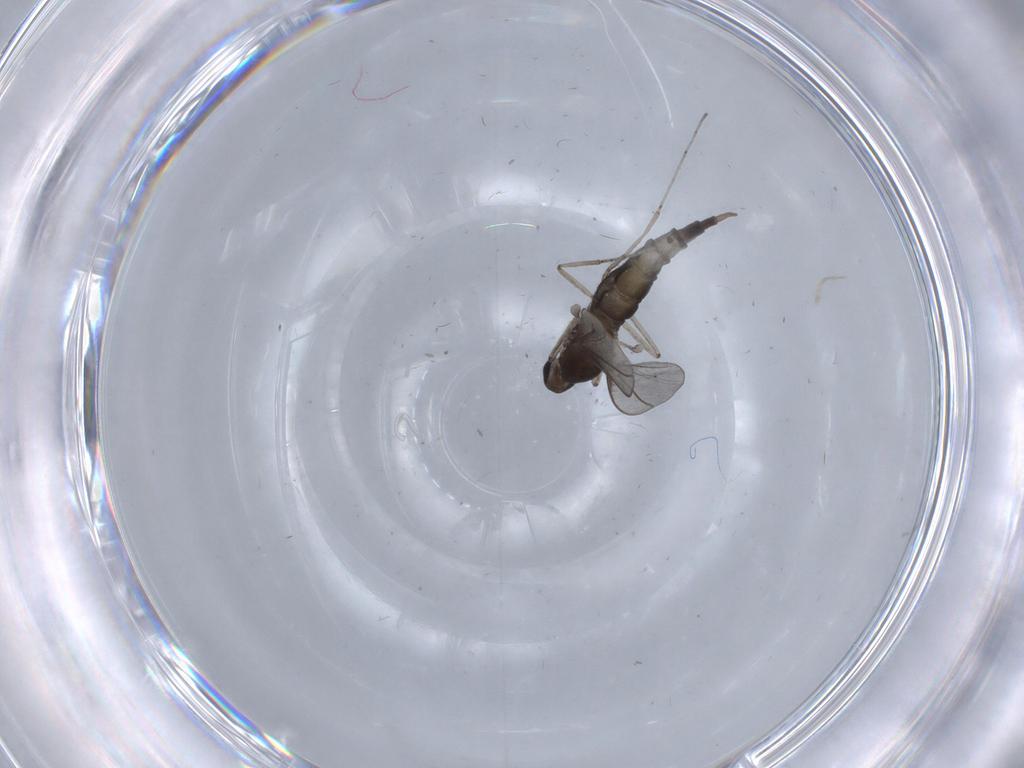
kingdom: Animalia
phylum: Arthropoda
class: Insecta
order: Diptera
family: Cecidomyiidae
